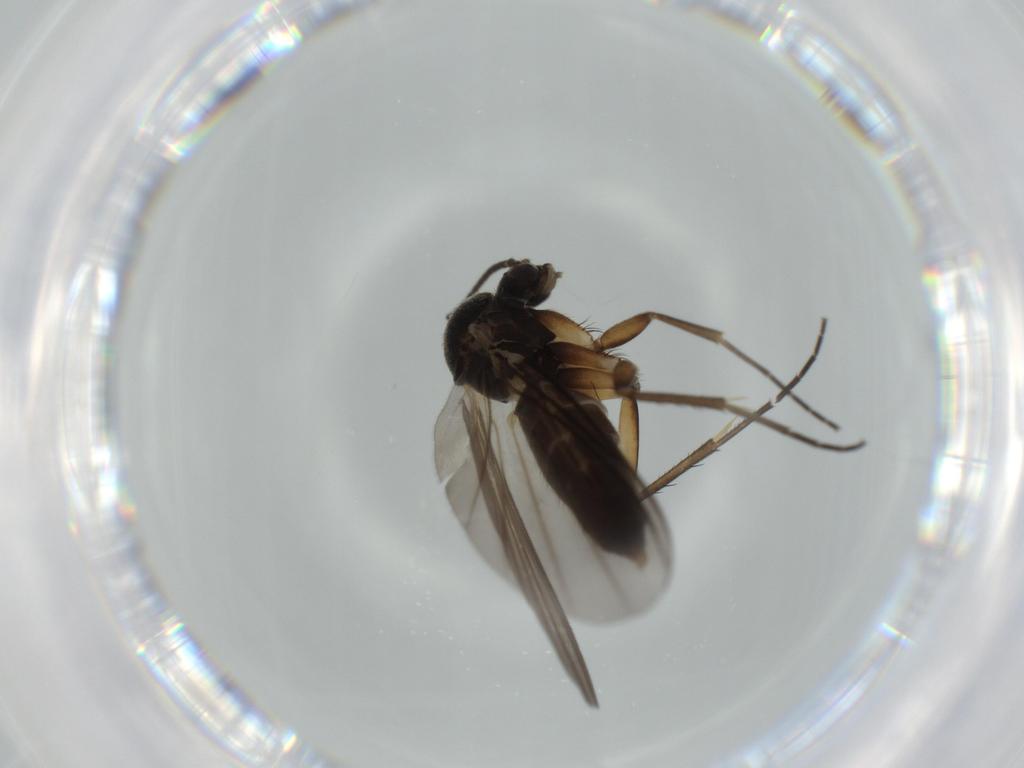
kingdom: Animalia
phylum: Arthropoda
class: Insecta
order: Diptera
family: Mycetophilidae
